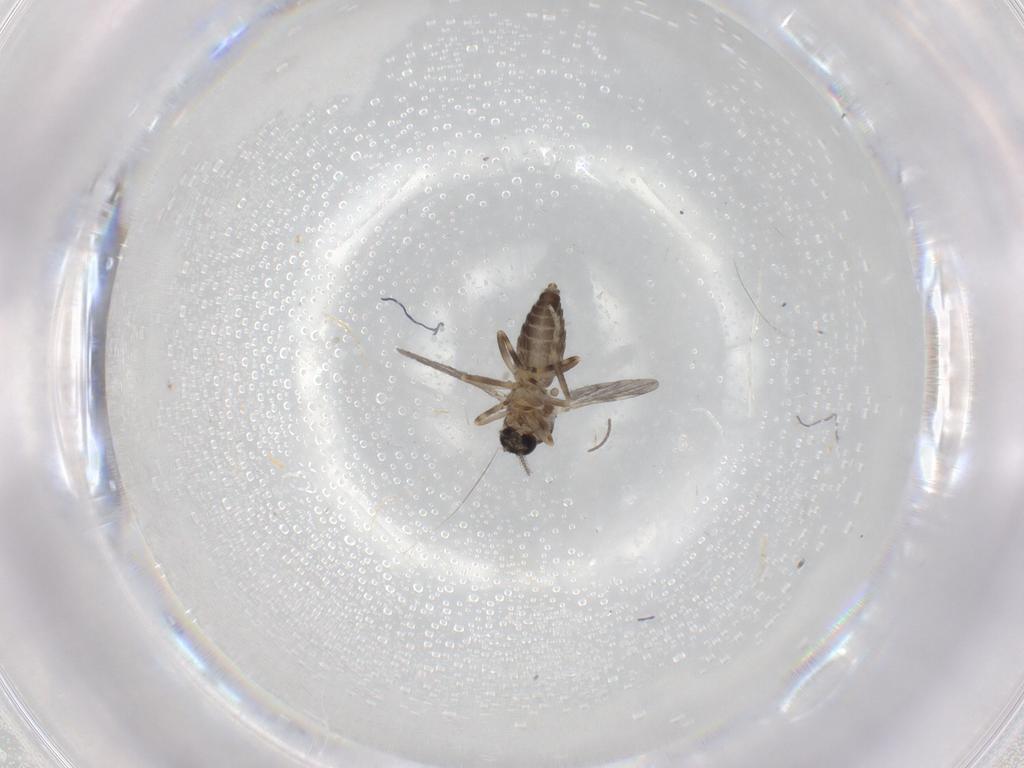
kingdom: Animalia
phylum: Arthropoda
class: Insecta
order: Diptera
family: Ceratopogonidae
